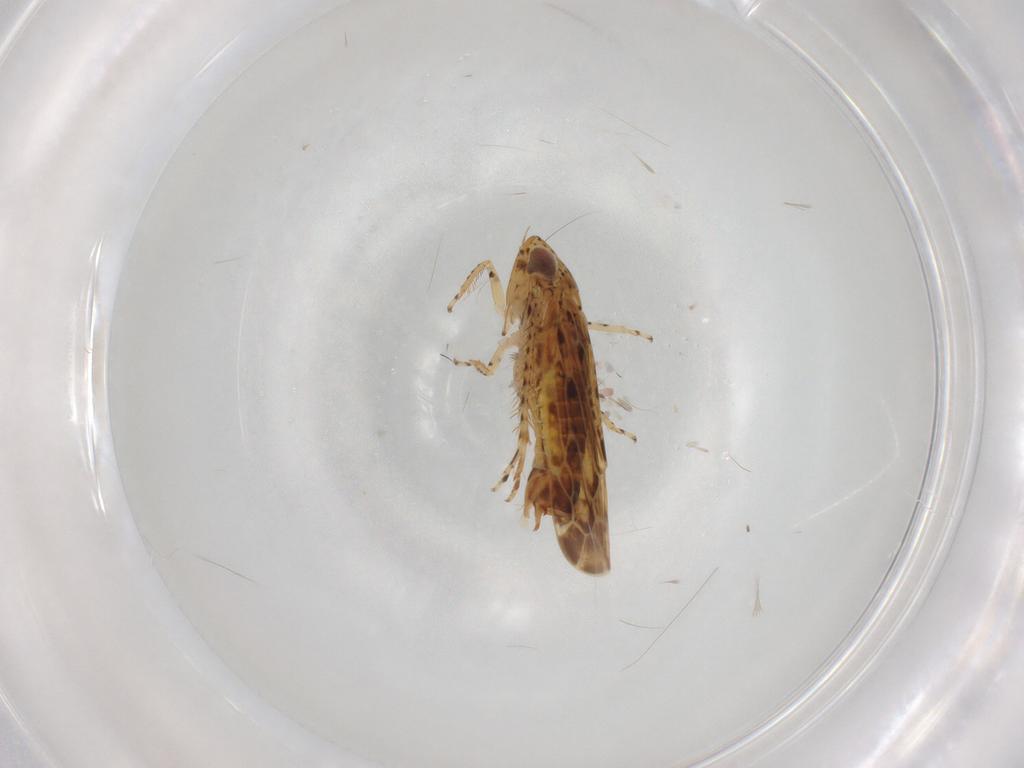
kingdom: Animalia
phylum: Arthropoda
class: Insecta
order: Hemiptera
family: Cicadellidae
